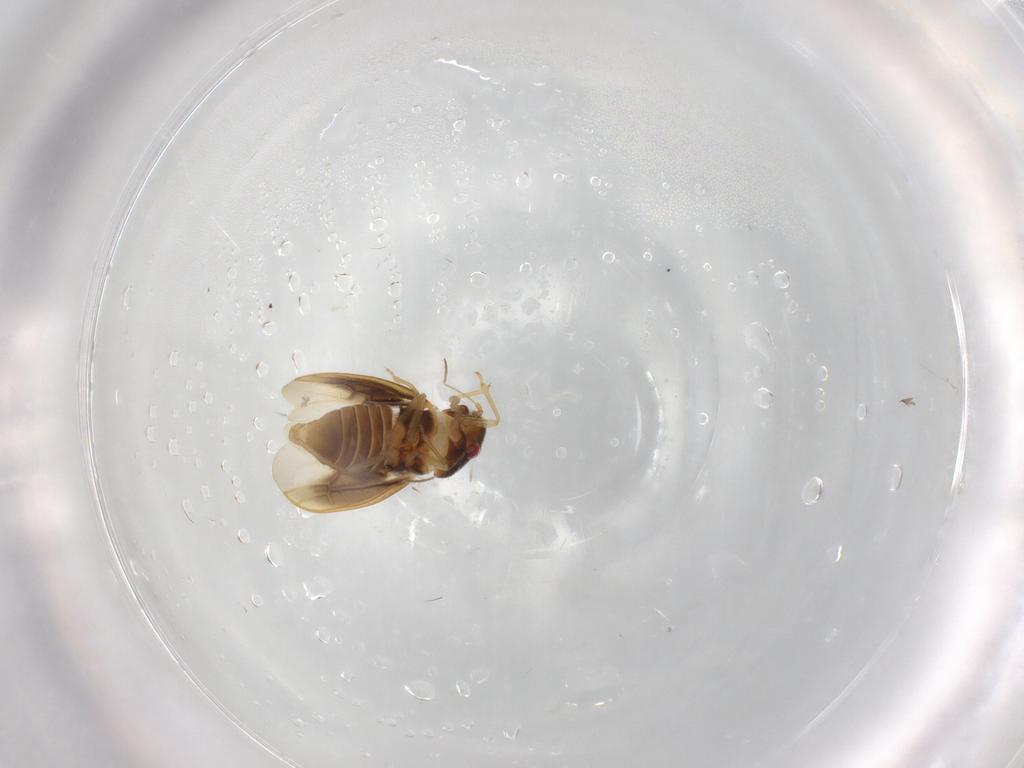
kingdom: Animalia
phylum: Arthropoda
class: Insecta
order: Hemiptera
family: Schizopteridae
